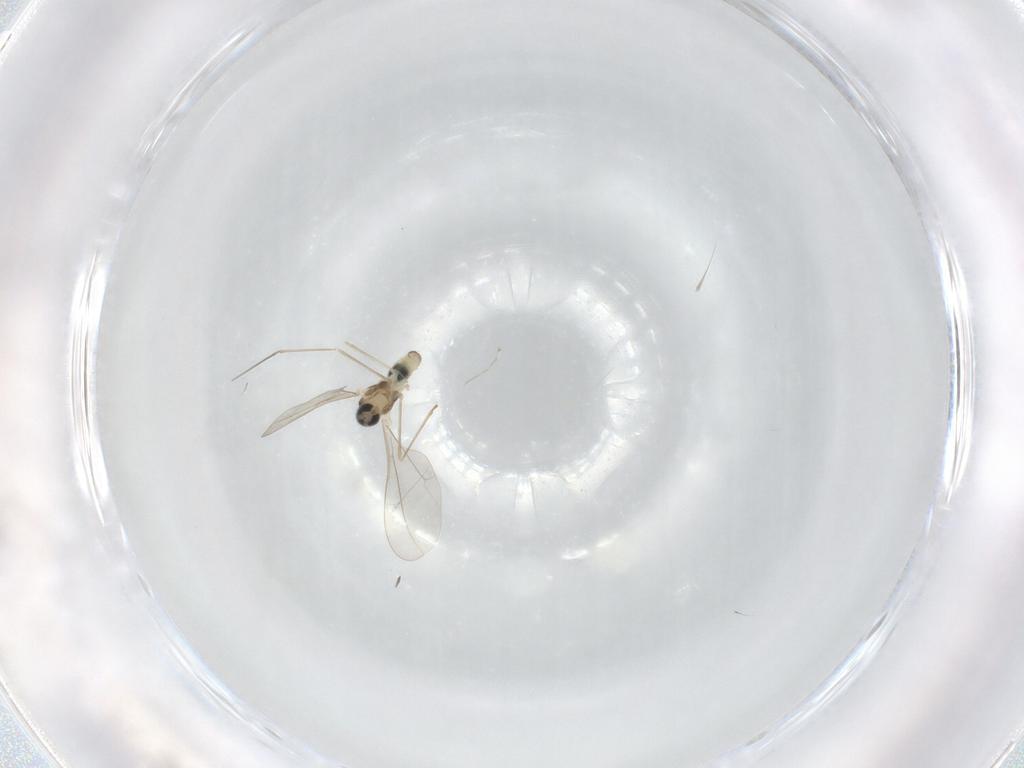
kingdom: Animalia
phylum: Arthropoda
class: Insecta
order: Diptera
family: Cecidomyiidae
